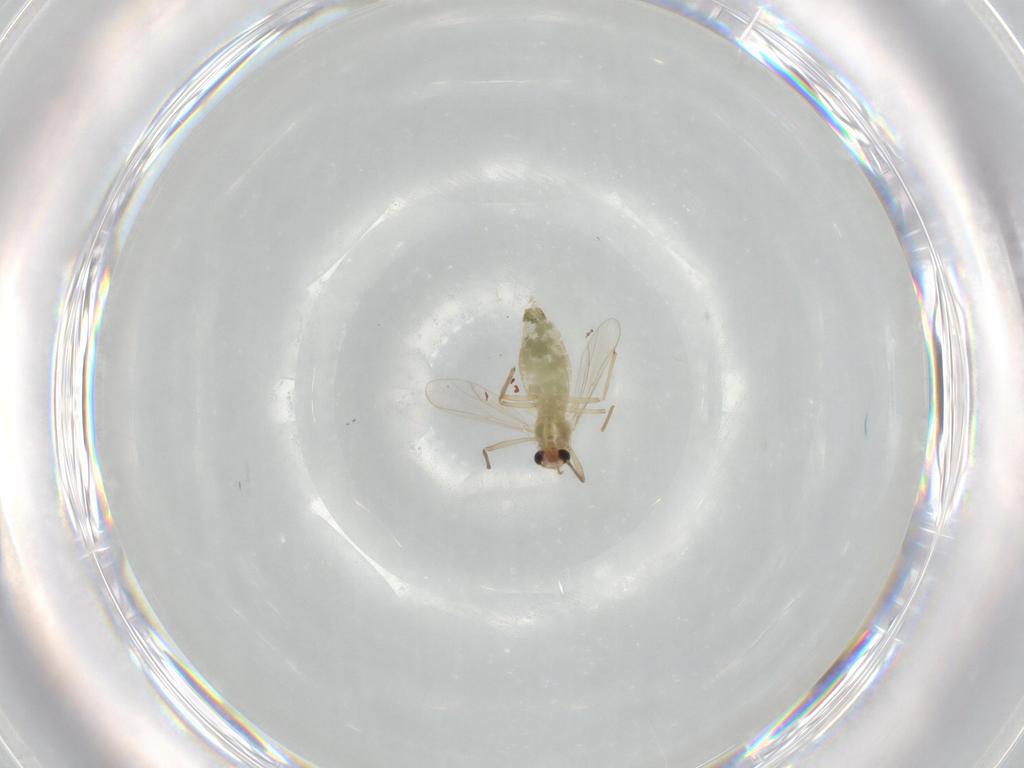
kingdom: Animalia
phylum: Arthropoda
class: Insecta
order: Diptera
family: Chironomidae
